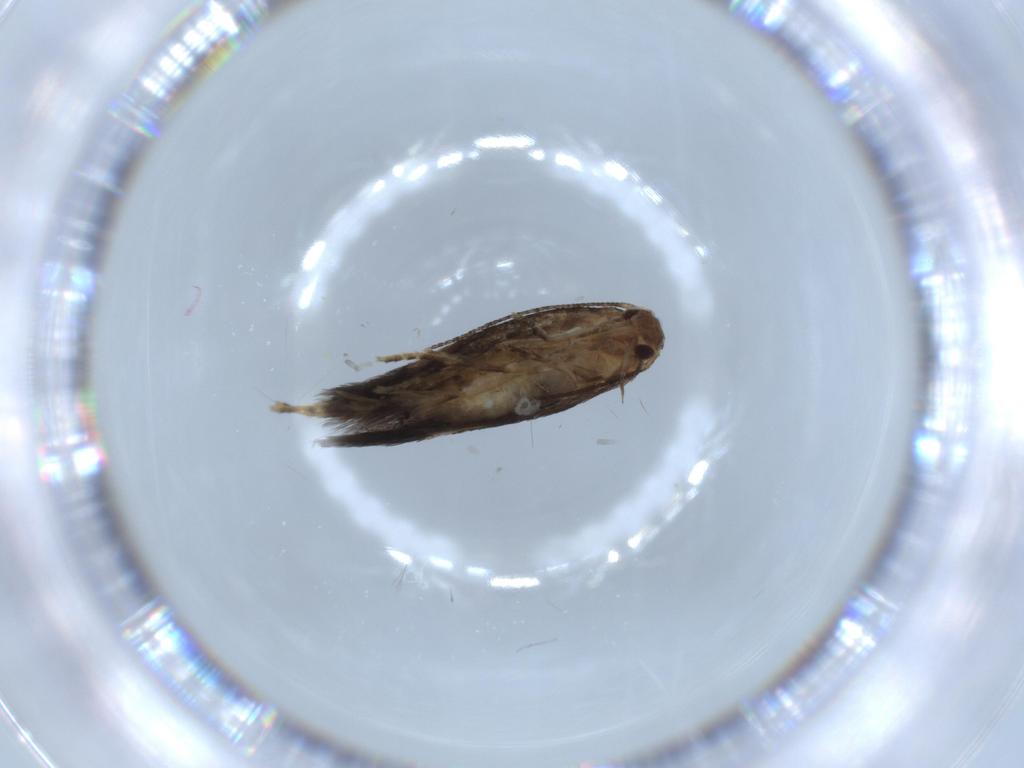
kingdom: Animalia
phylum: Arthropoda
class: Insecta
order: Lepidoptera
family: Gelechiidae
